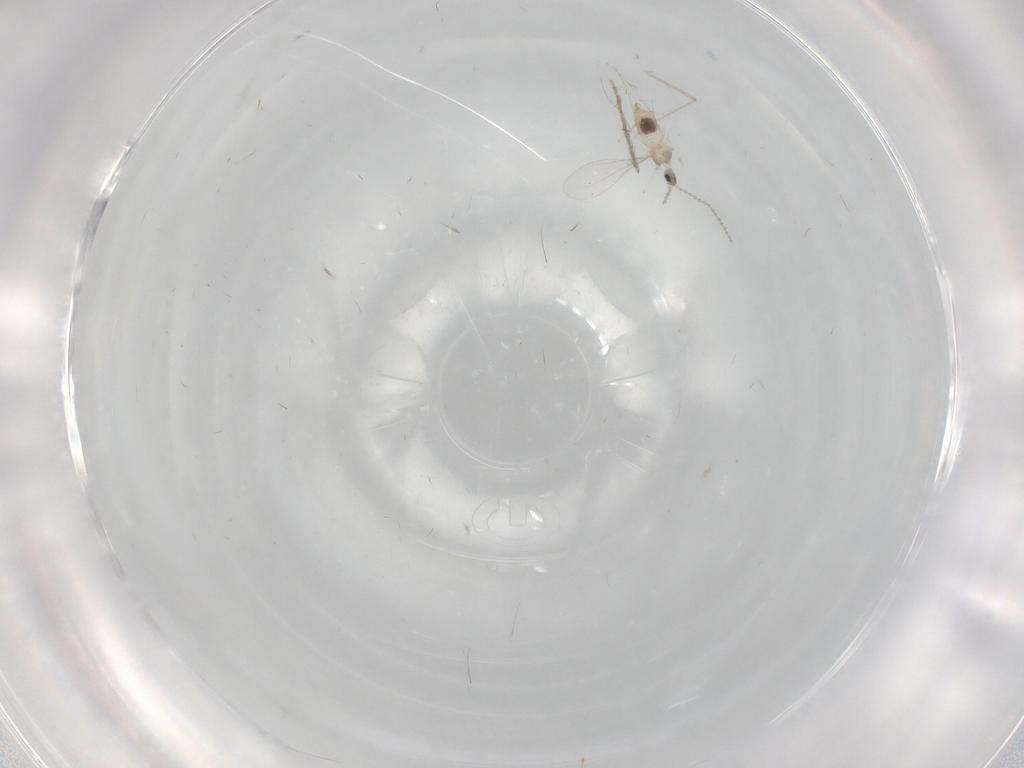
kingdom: Animalia
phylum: Arthropoda
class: Insecta
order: Diptera
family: Cecidomyiidae
